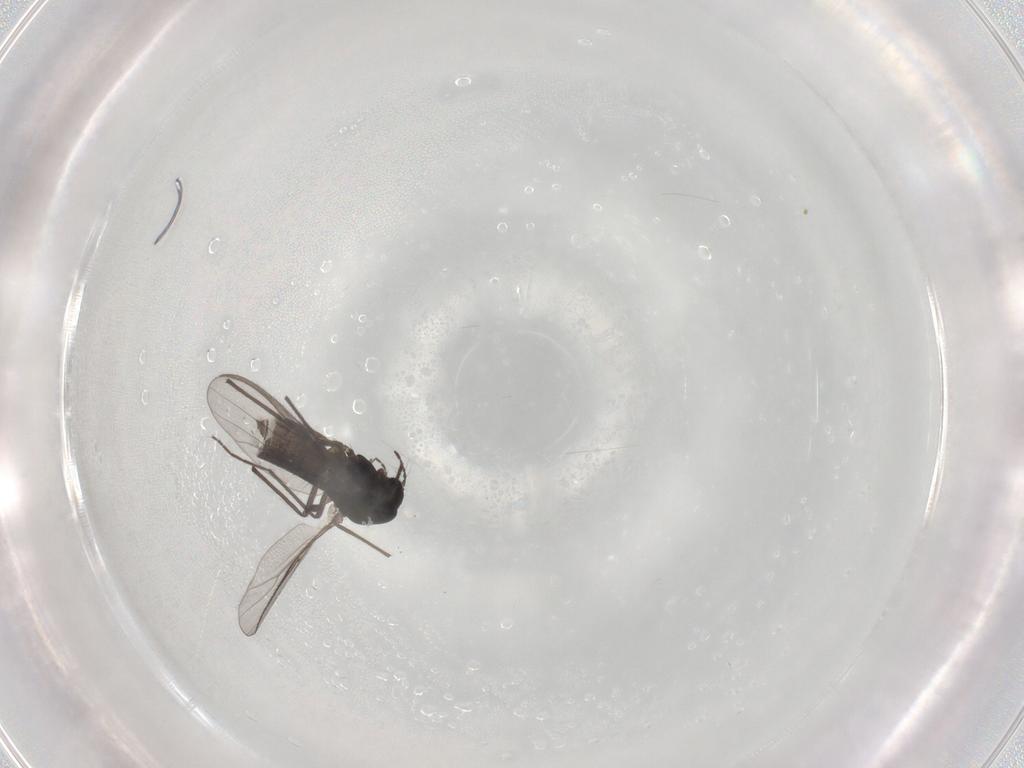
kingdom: Animalia
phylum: Arthropoda
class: Insecta
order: Diptera
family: Chironomidae
